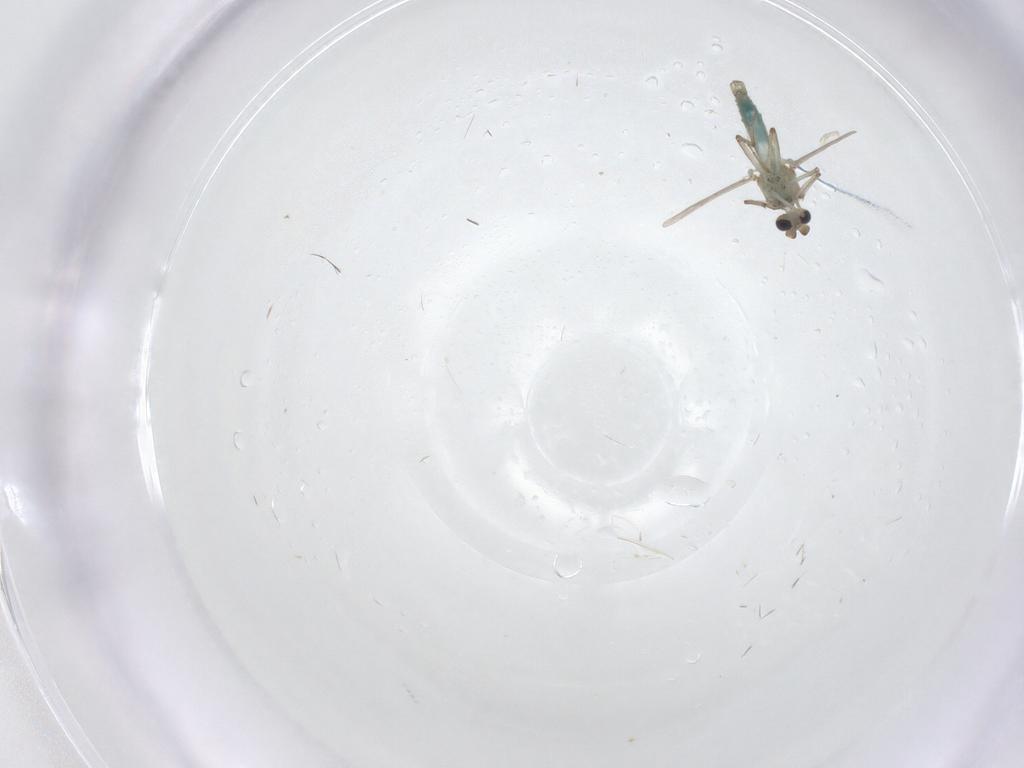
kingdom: Animalia
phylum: Arthropoda
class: Insecta
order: Diptera
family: Ceratopogonidae
